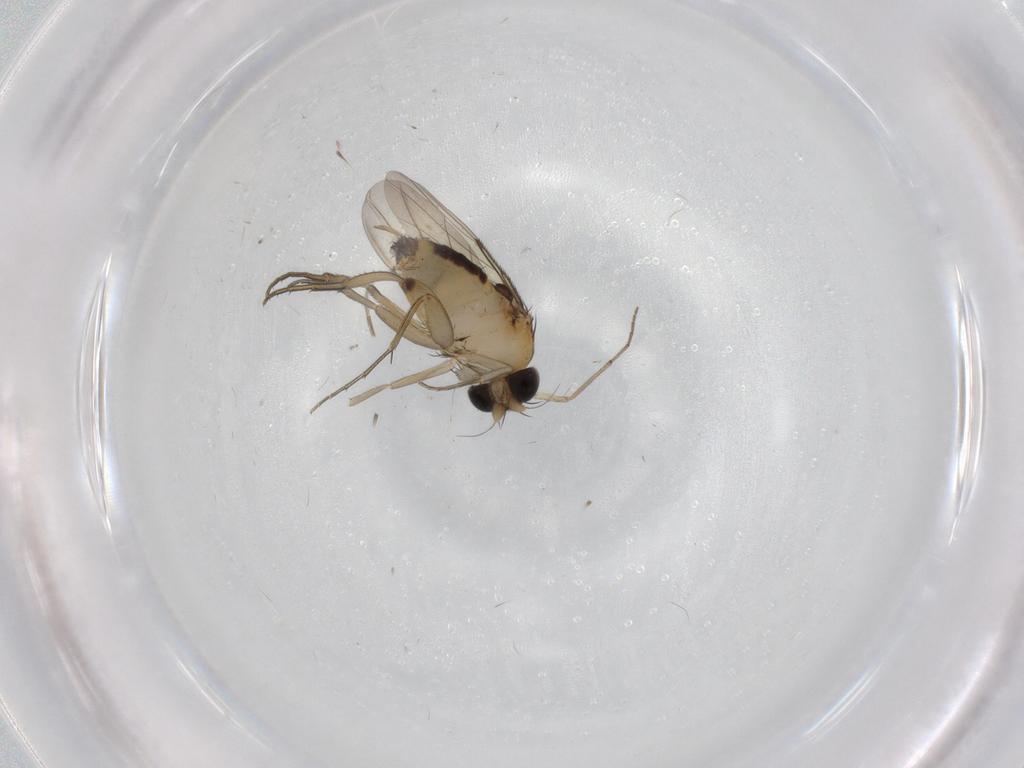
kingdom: Animalia
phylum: Arthropoda
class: Insecta
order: Diptera
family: Phoridae
